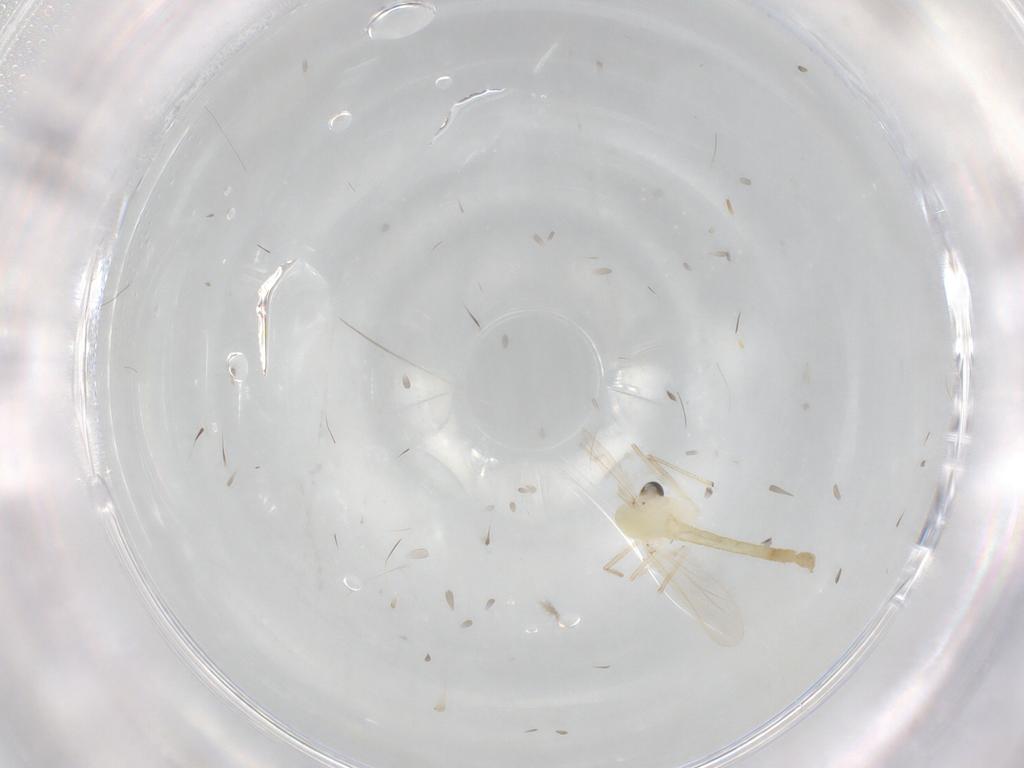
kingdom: Animalia
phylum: Arthropoda
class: Insecta
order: Diptera
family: Chironomidae
